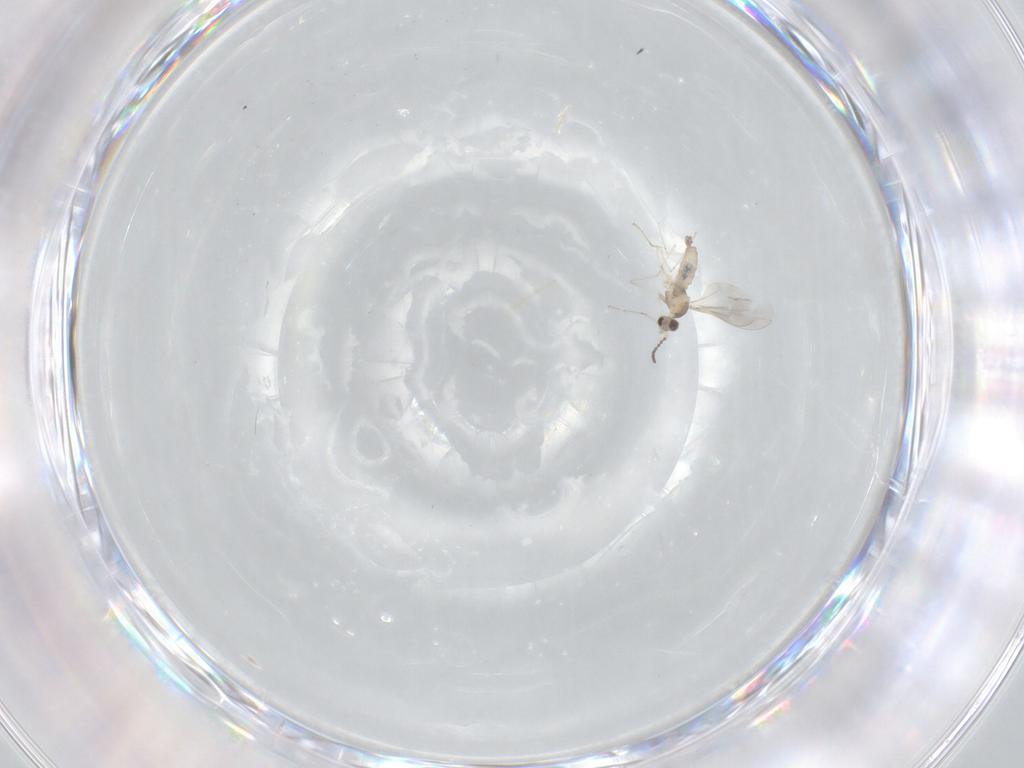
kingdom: Animalia
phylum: Arthropoda
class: Insecta
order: Diptera
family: Cecidomyiidae
